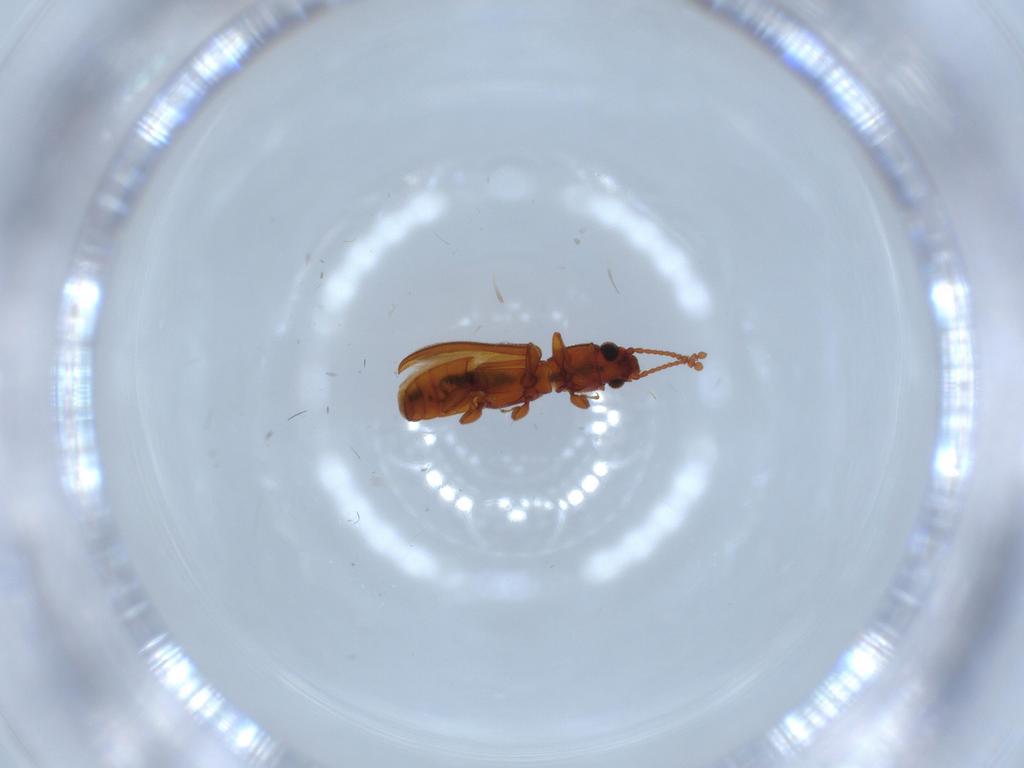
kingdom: Animalia
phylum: Arthropoda
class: Insecta
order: Coleoptera
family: Silvanidae
